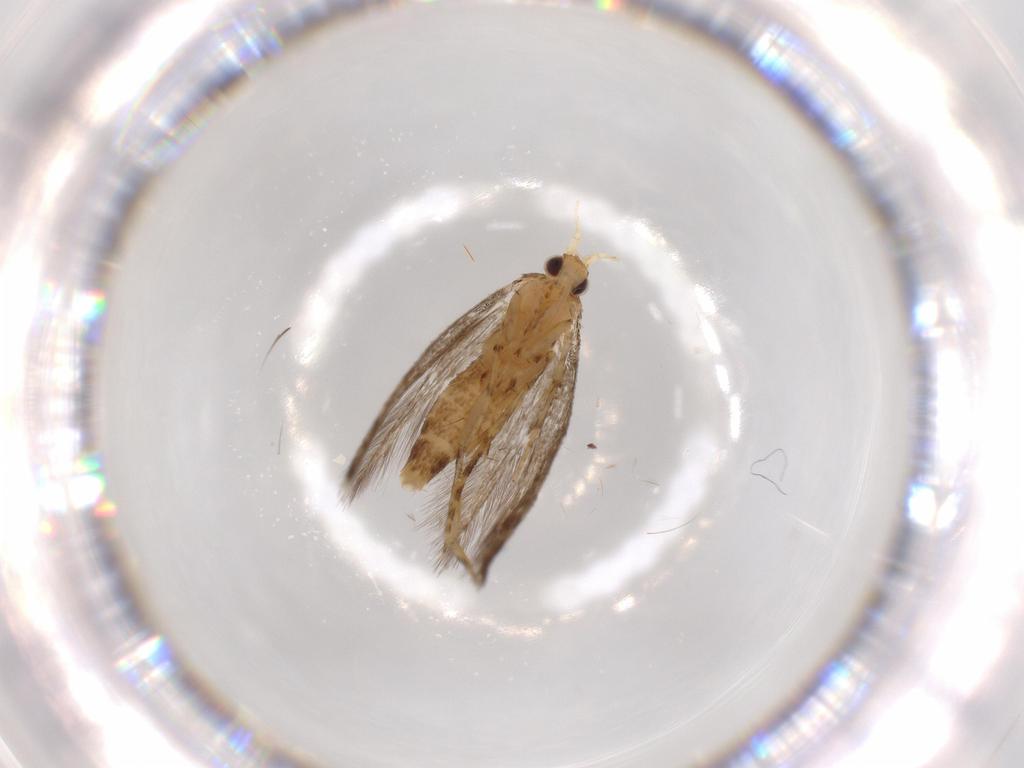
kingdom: Animalia
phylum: Arthropoda
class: Insecta
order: Lepidoptera
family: Argyresthiidae
